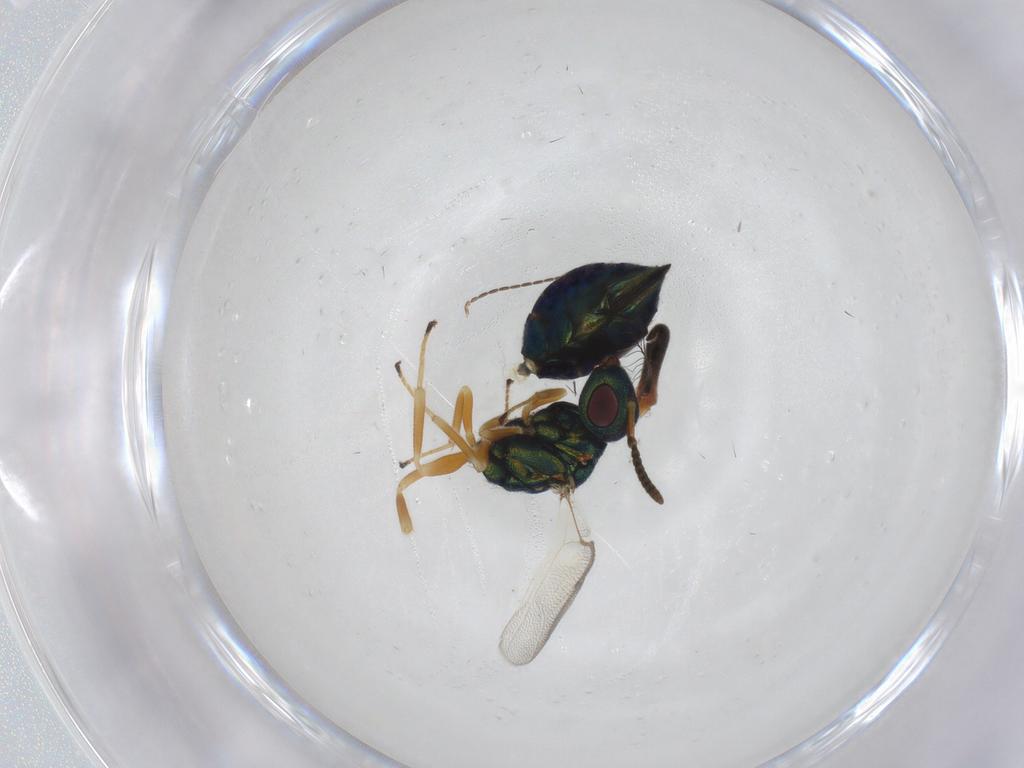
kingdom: Animalia
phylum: Arthropoda
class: Insecta
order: Hymenoptera
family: Pteromalidae
